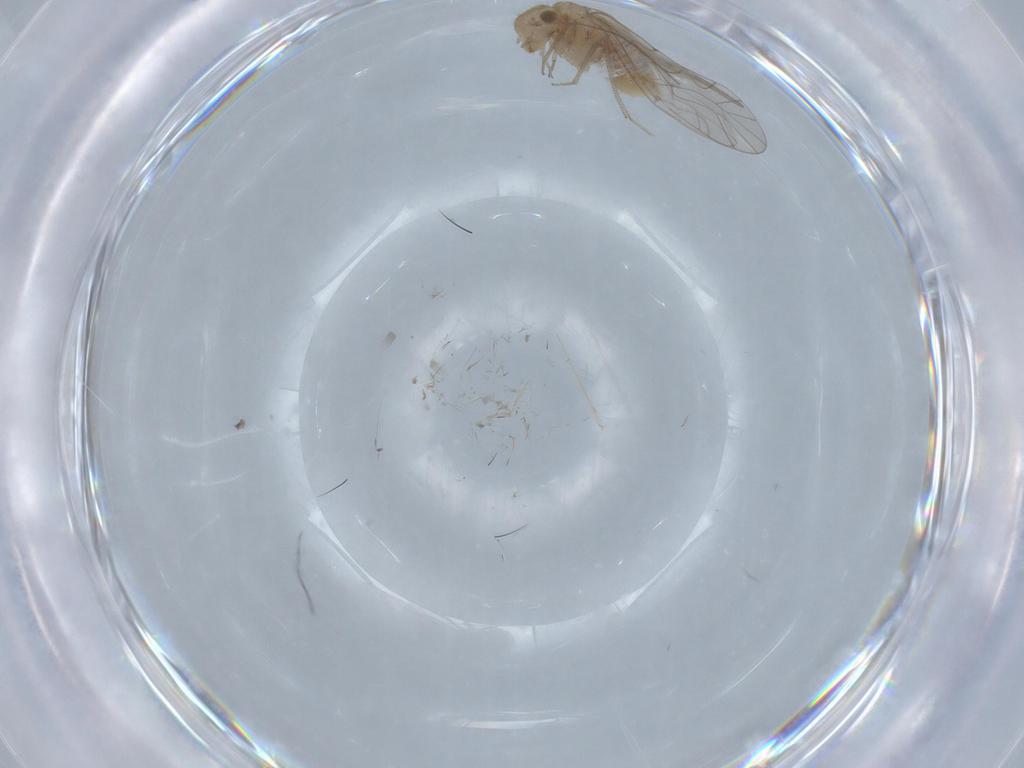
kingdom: Animalia
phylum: Arthropoda
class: Insecta
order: Psocodea
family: Lachesillidae
